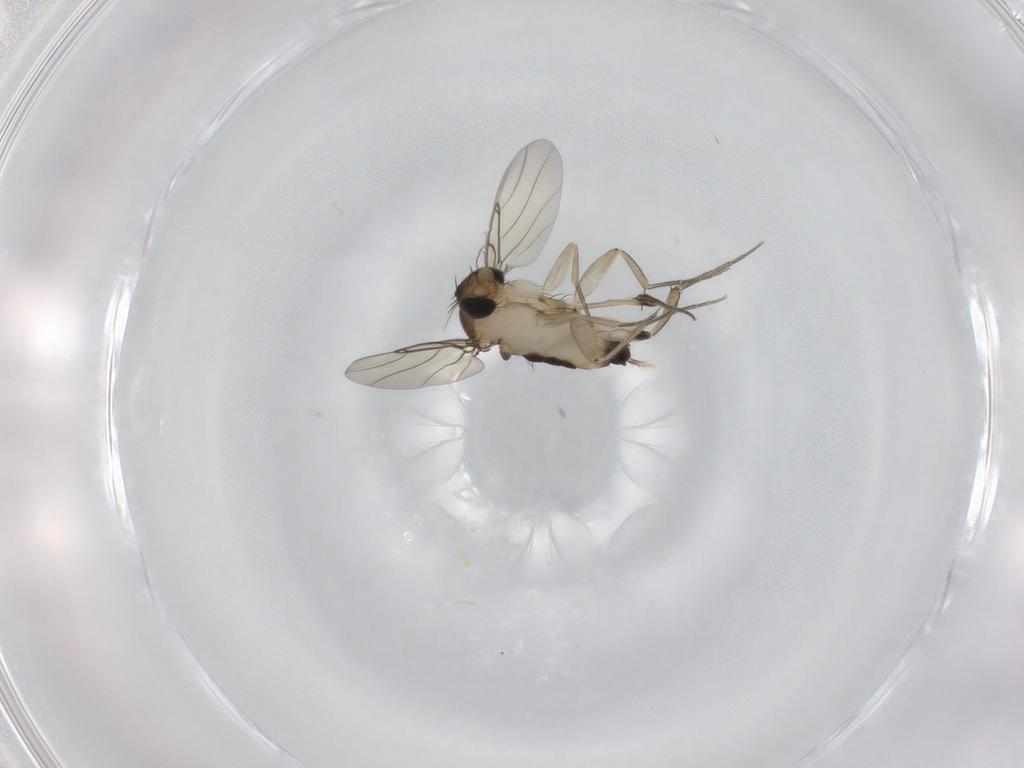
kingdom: Animalia
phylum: Arthropoda
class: Insecta
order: Diptera
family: Phoridae
